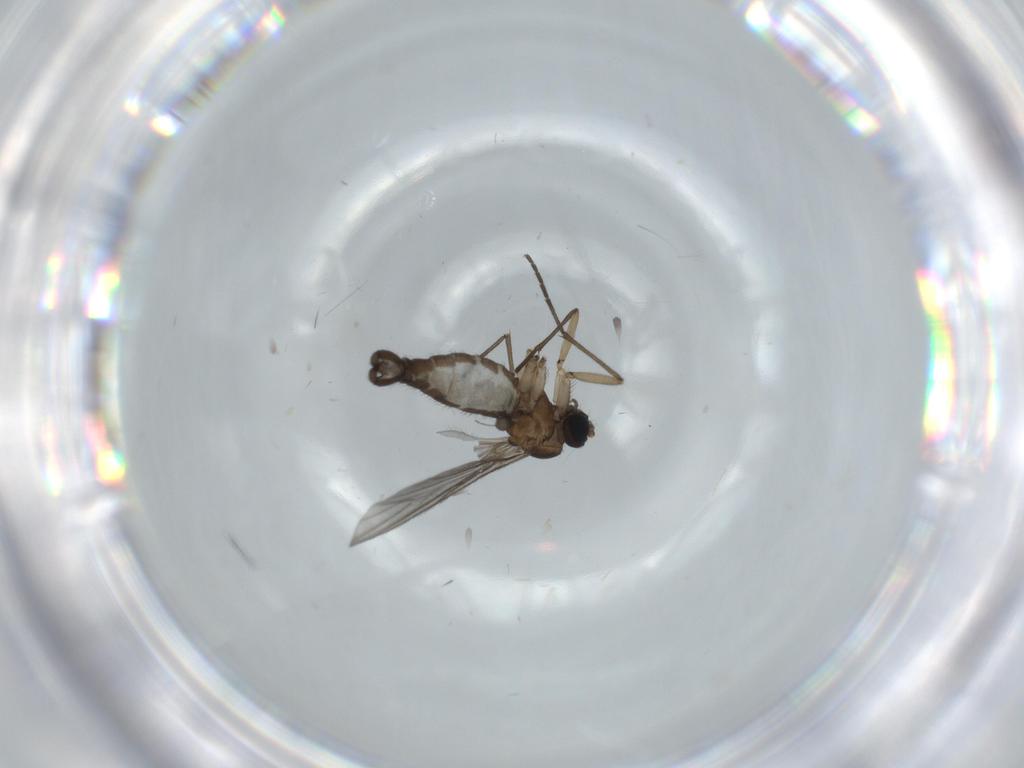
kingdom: Animalia
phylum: Arthropoda
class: Insecta
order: Diptera
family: Sciaridae
